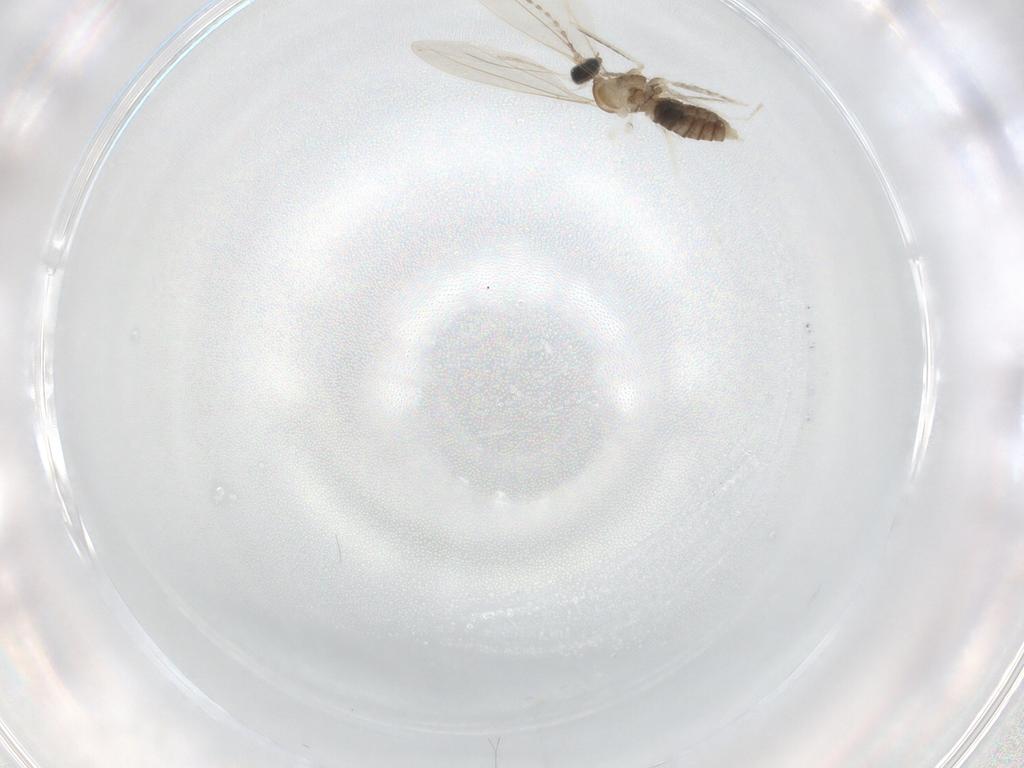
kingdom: Animalia
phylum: Arthropoda
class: Insecta
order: Diptera
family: Cecidomyiidae
